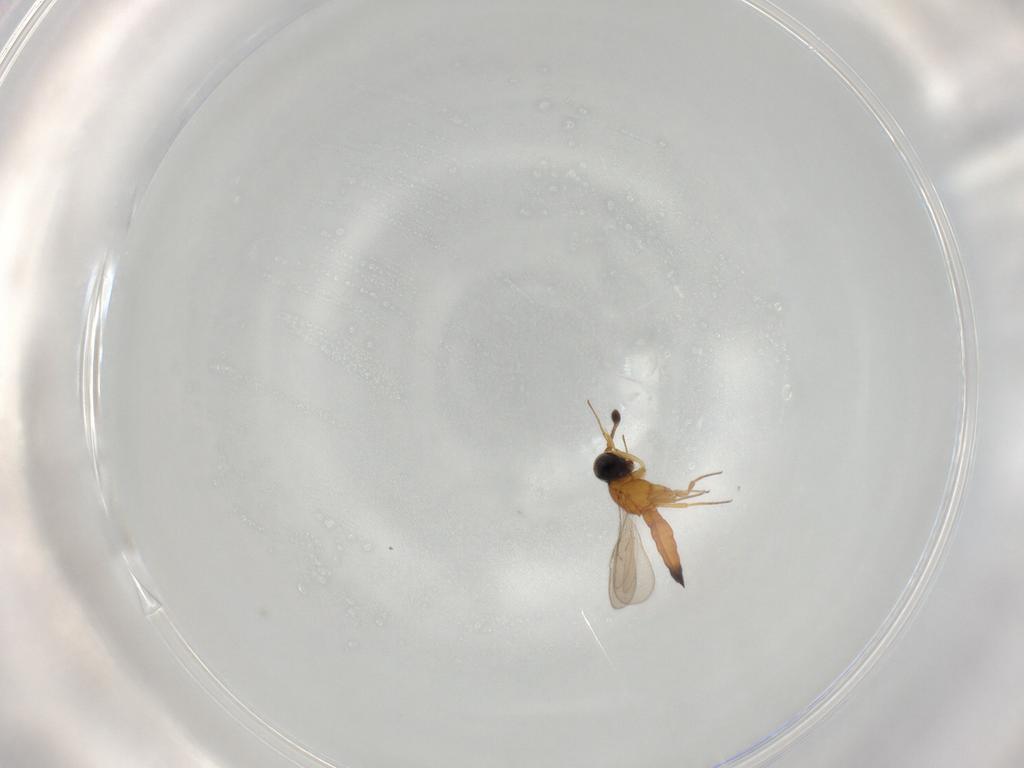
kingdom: Animalia
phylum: Arthropoda
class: Insecta
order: Hymenoptera
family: Scelionidae
